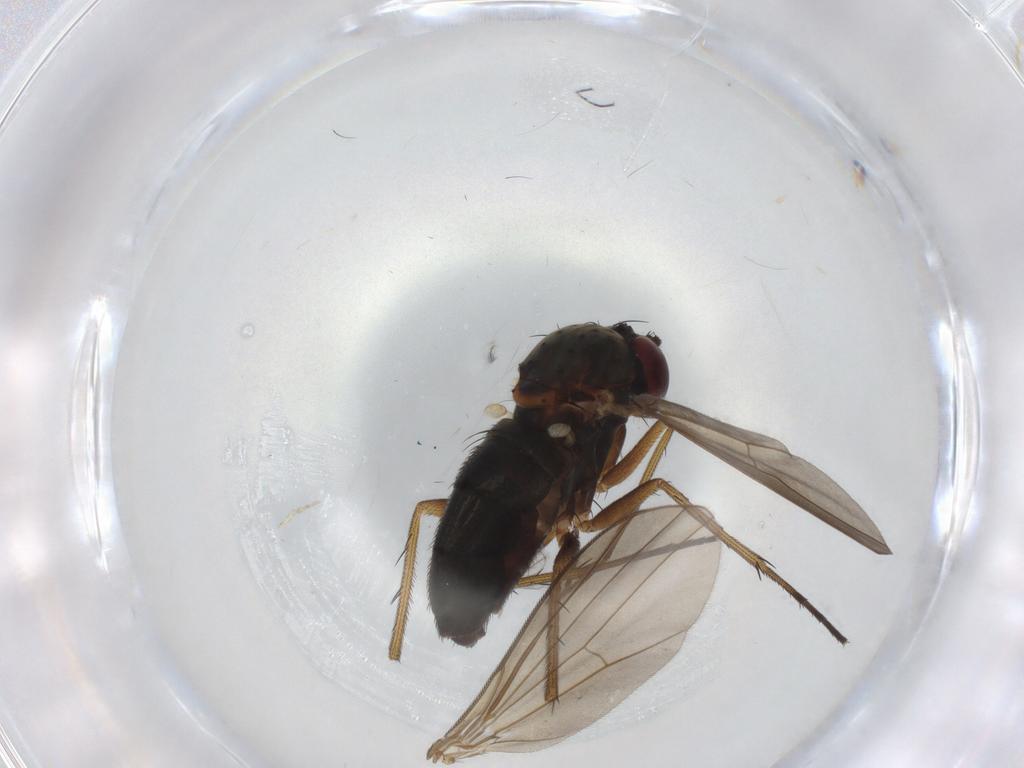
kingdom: Animalia
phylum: Arthropoda
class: Insecta
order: Diptera
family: Dolichopodidae
